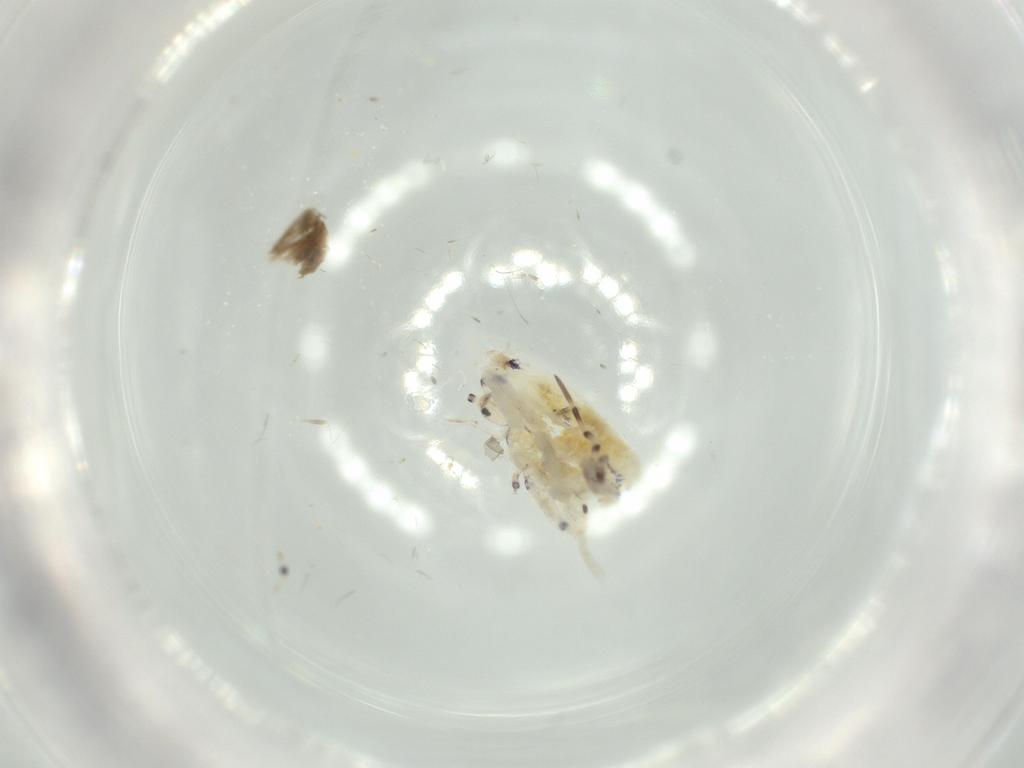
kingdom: Animalia
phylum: Arthropoda
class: Collembola
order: Entomobryomorpha
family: Entomobryidae
